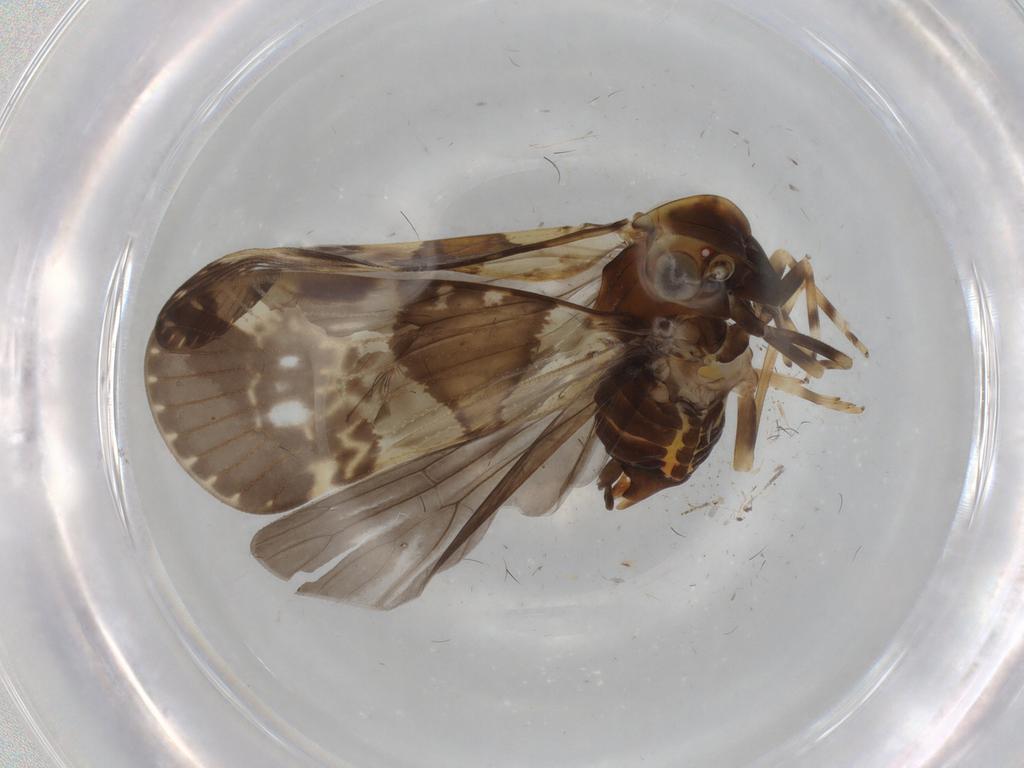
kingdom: Animalia
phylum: Arthropoda
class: Insecta
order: Hemiptera
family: Cixiidae
